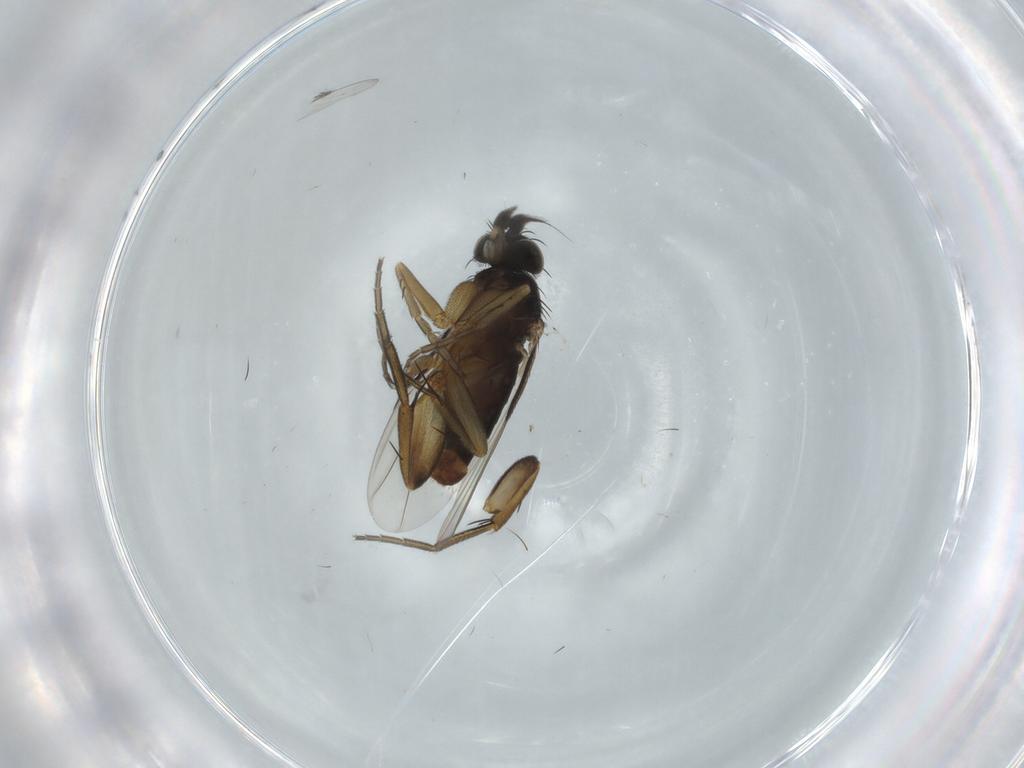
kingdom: Animalia
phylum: Arthropoda
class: Insecta
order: Diptera
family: Phoridae
